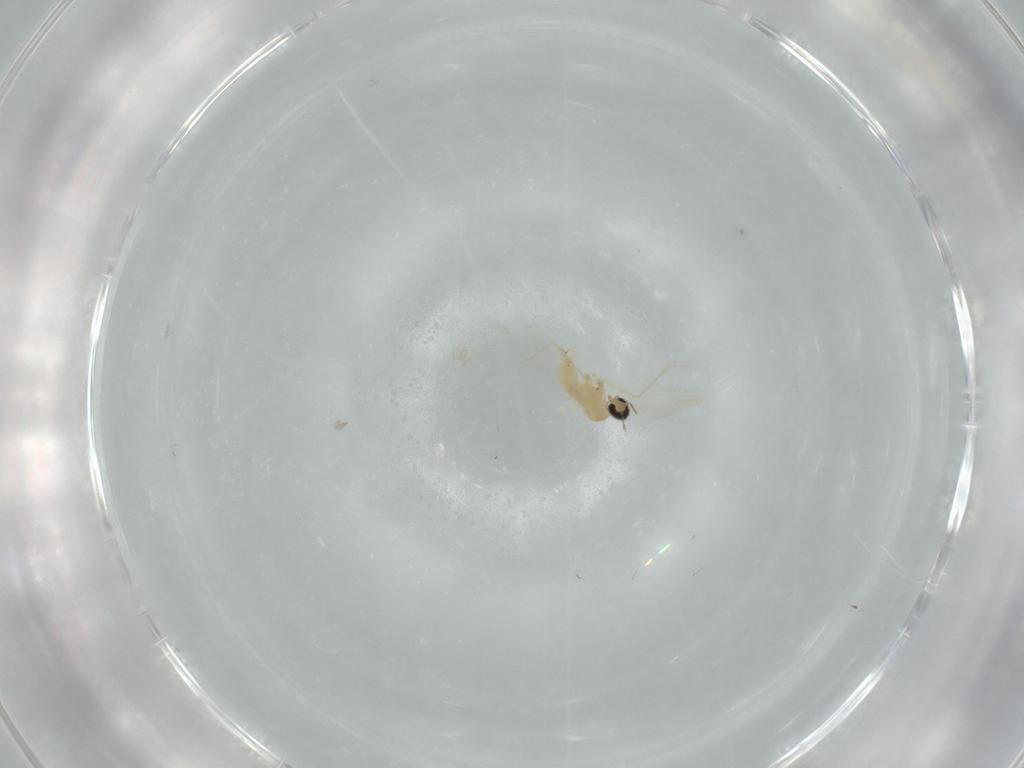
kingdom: Animalia
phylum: Arthropoda
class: Insecta
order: Diptera
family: Cecidomyiidae
